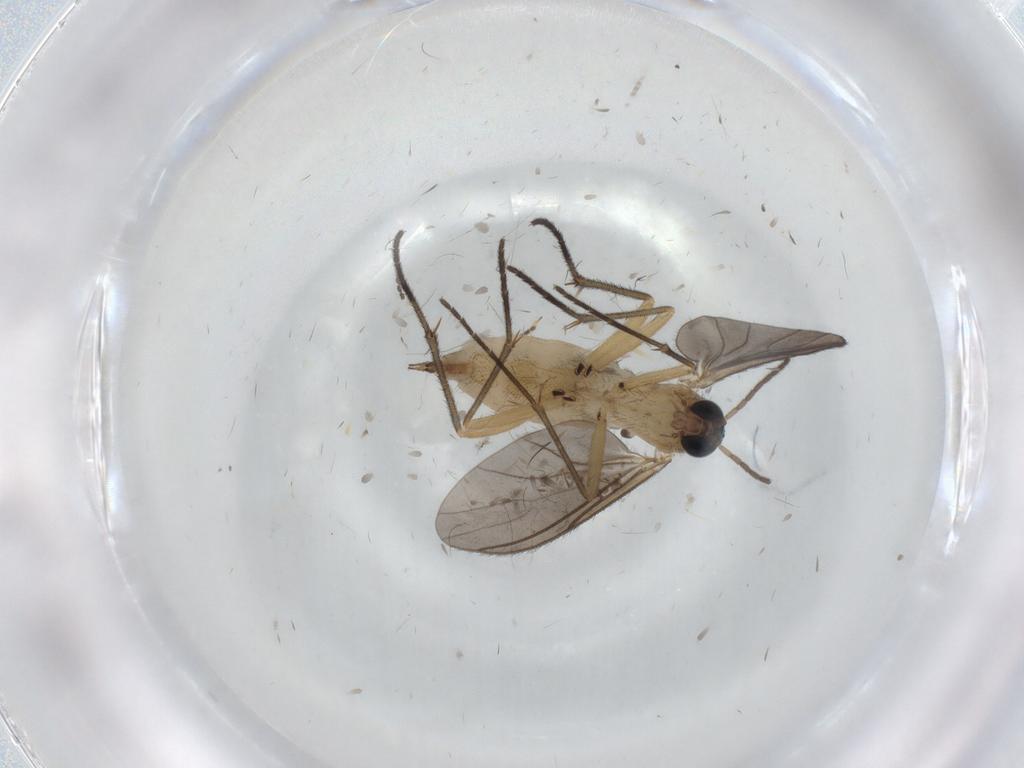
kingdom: Animalia
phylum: Arthropoda
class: Insecta
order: Diptera
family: Sciaridae
